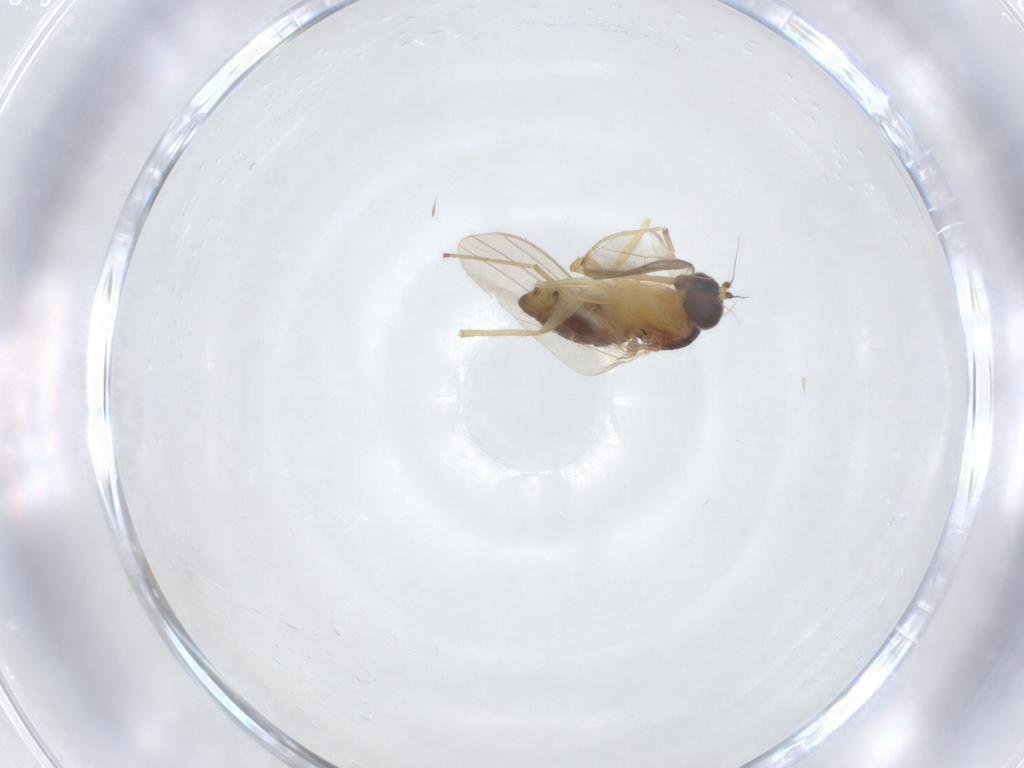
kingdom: Animalia
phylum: Arthropoda
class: Insecta
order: Diptera
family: Dolichopodidae
